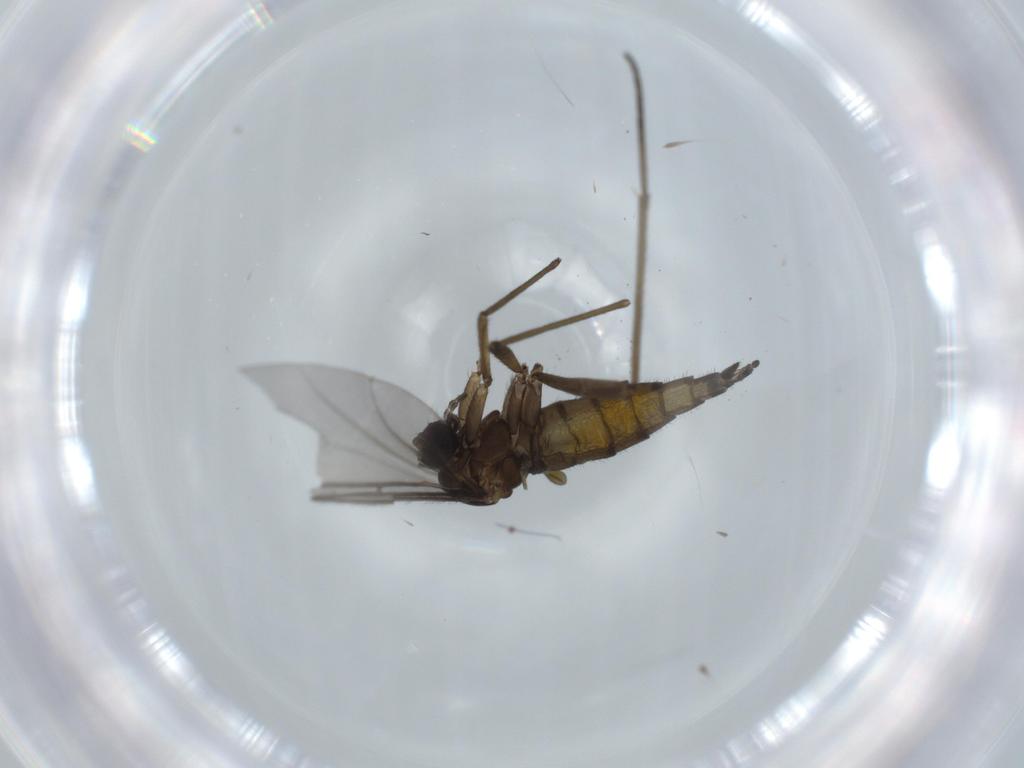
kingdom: Animalia
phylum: Arthropoda
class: Insecta
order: Diptera
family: Sciaridae
